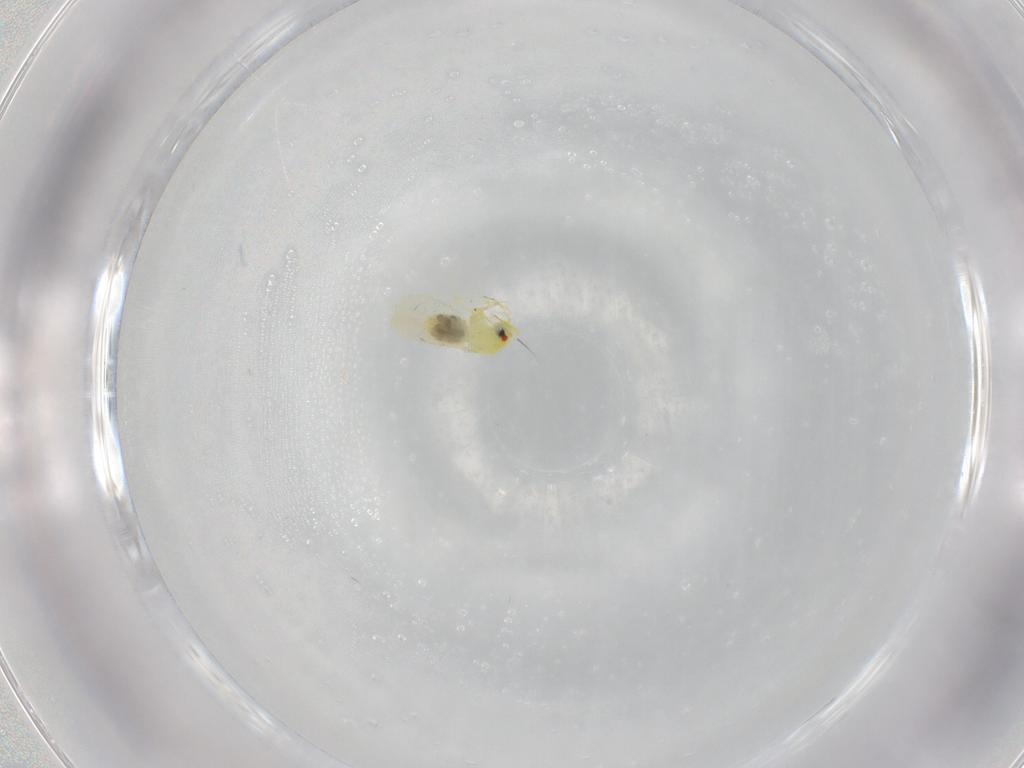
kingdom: Animalia
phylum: Arthropoda
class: Insecta
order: Hemiptera
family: Aleyrodidae
